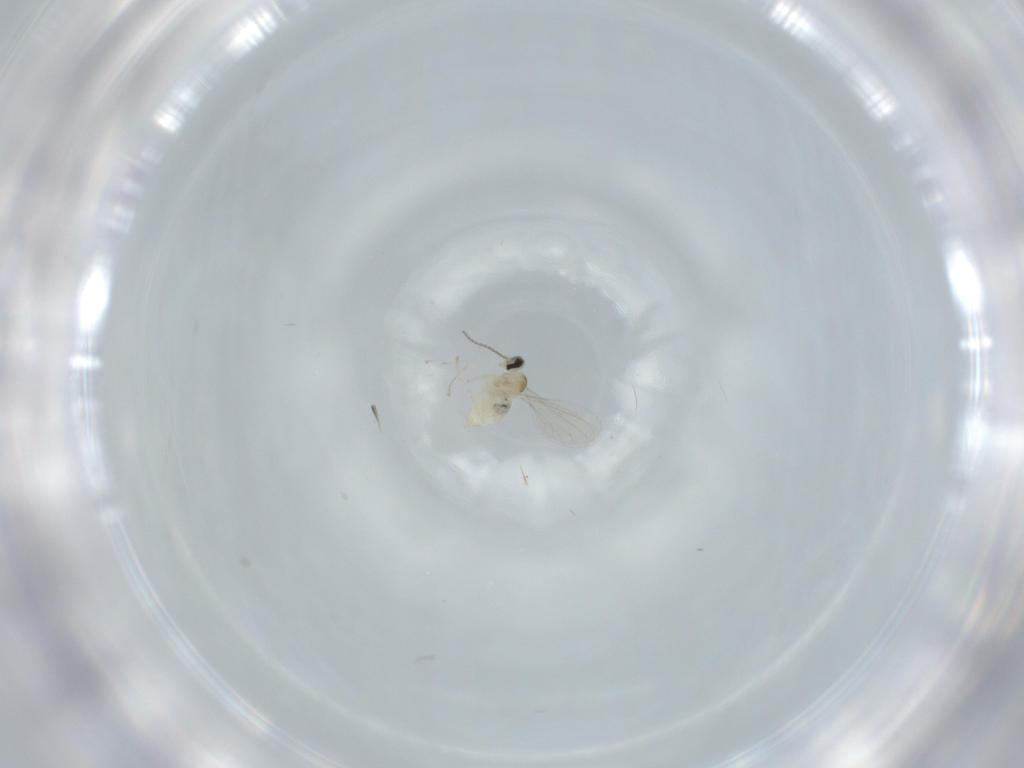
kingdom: Animalia
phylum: Arthropoda
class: Insecta
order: Diptera
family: Cecidomyiidae
